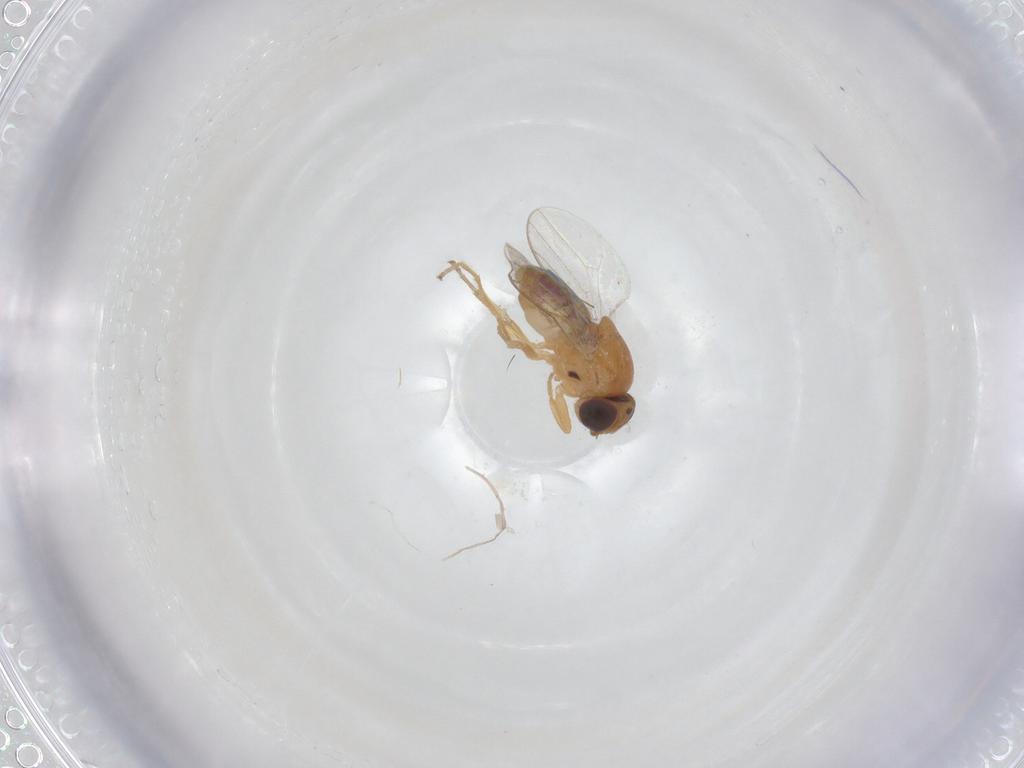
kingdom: Animalia
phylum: Arthropoda
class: Insecta
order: Diptera
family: Chloropidae
